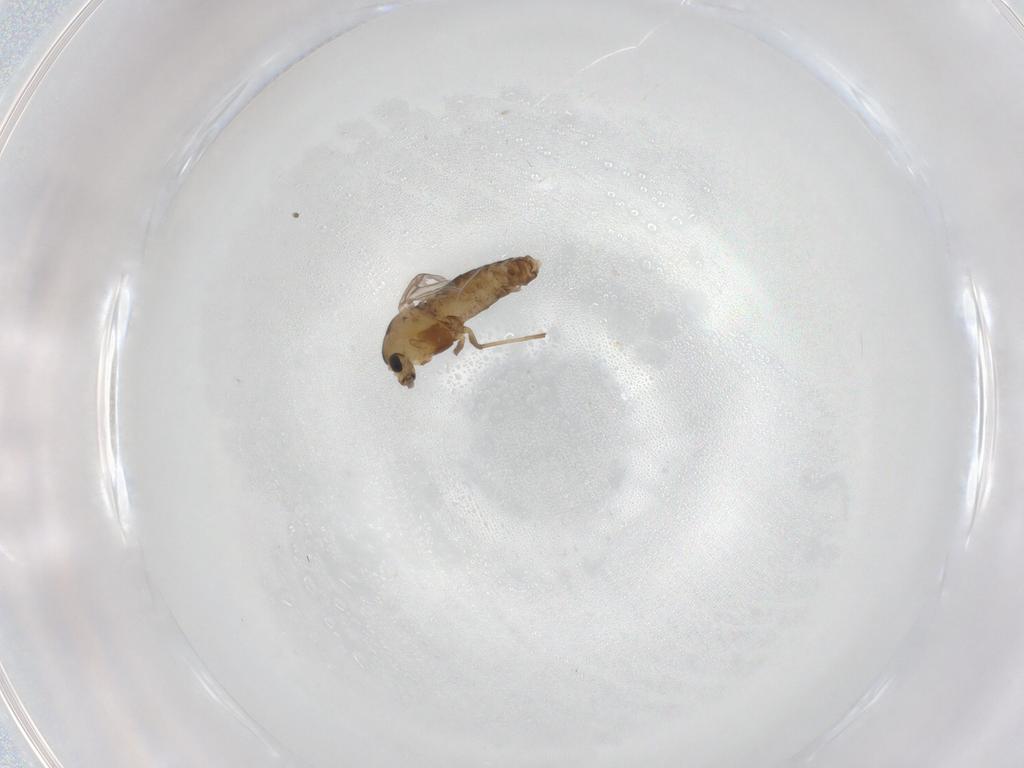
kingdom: Animalia
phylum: Arthropoda
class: Insecta
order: Diptera
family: Chironomidae
